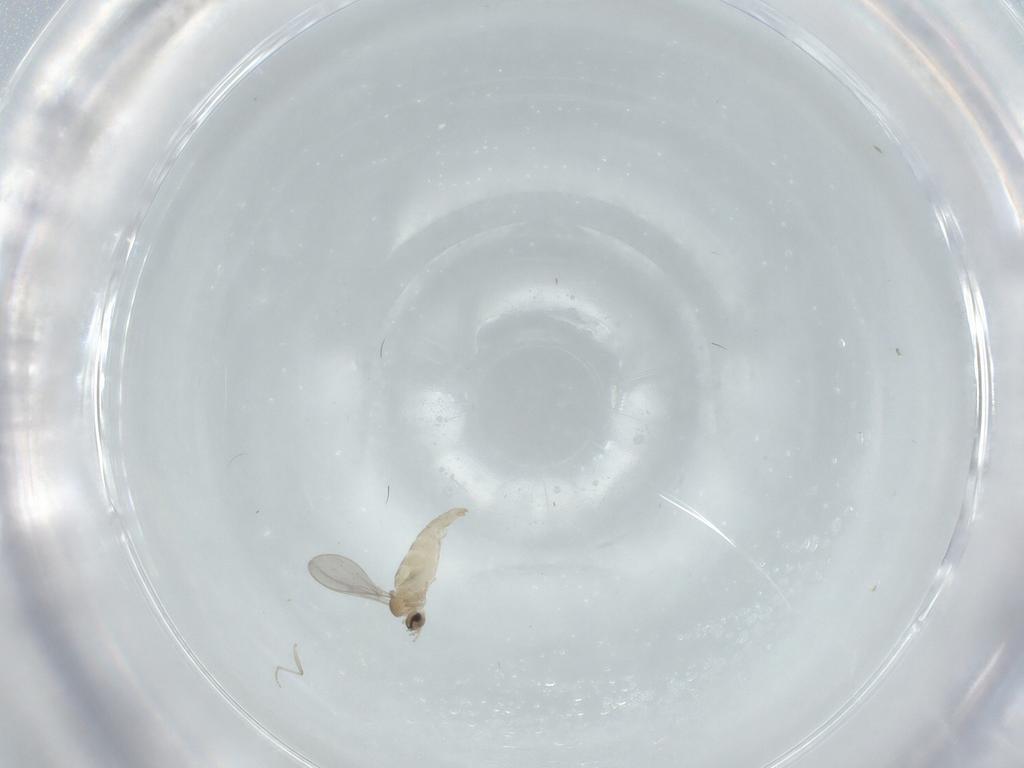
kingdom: Animalia
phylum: Arthropoda
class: Insecta
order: Diptera
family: Cecidomyiidae
